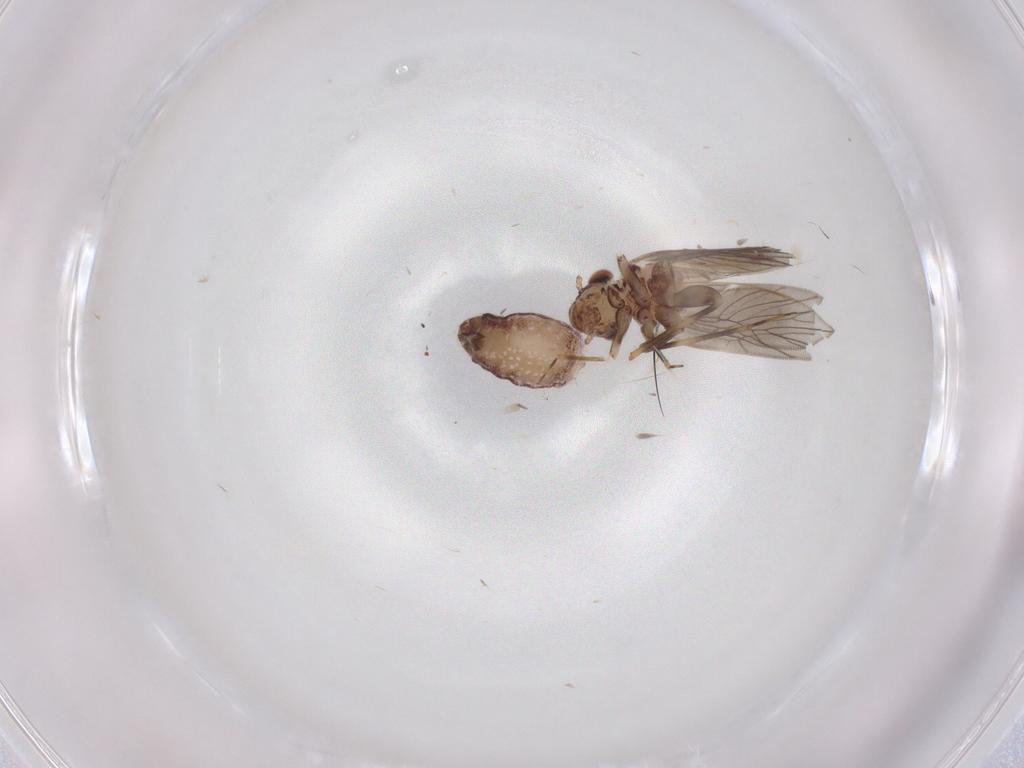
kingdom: Animalia
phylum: Arthropoda
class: Insecta
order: Psocodea
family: Lepidopsocidae
